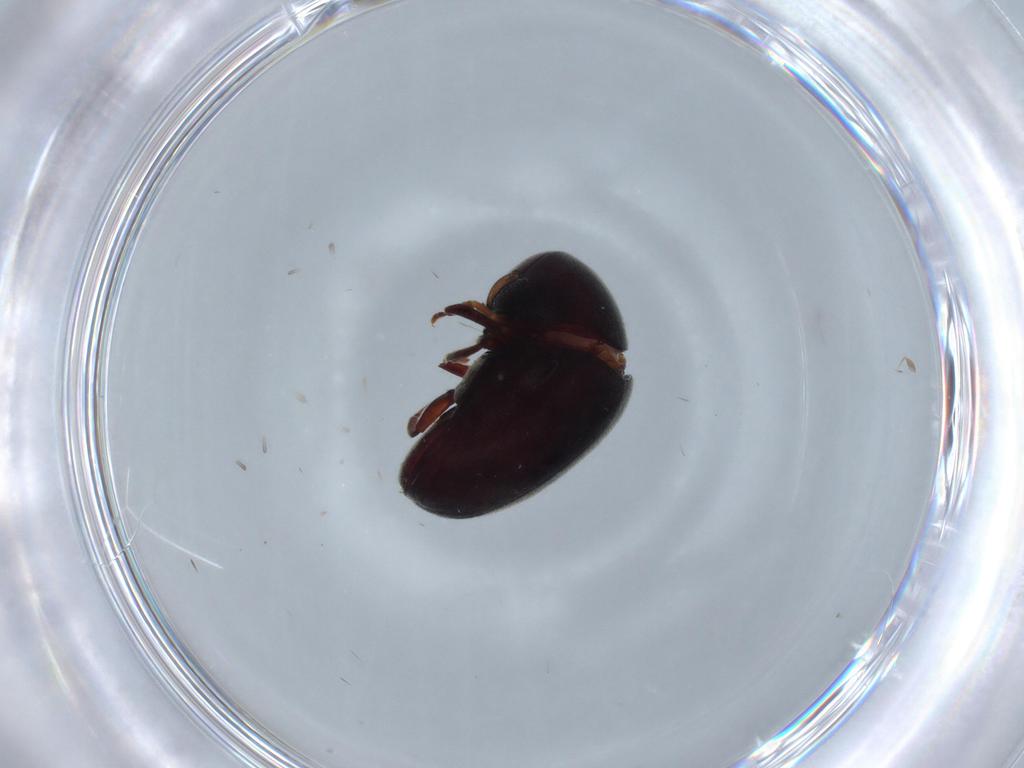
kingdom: Animalia
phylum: Arthropoda
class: Insecta
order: Coleoptera
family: Ptinidae
